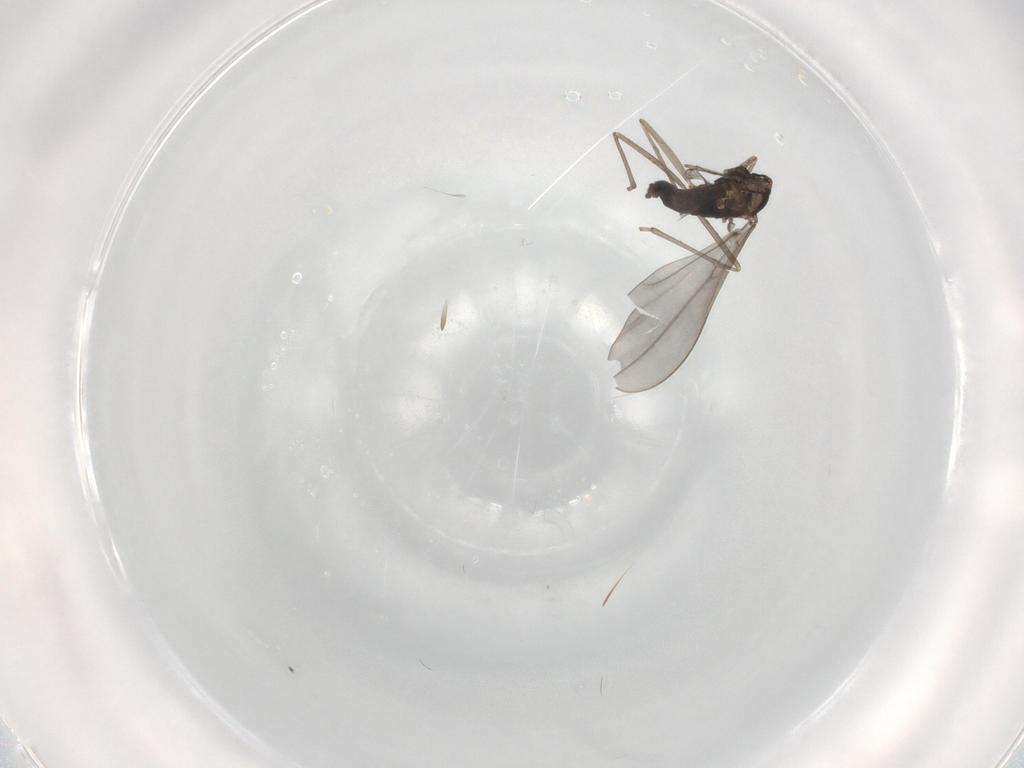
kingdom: Animalia
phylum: Arthropoda
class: Insecta
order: Diptera
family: Cecidomyiidae
